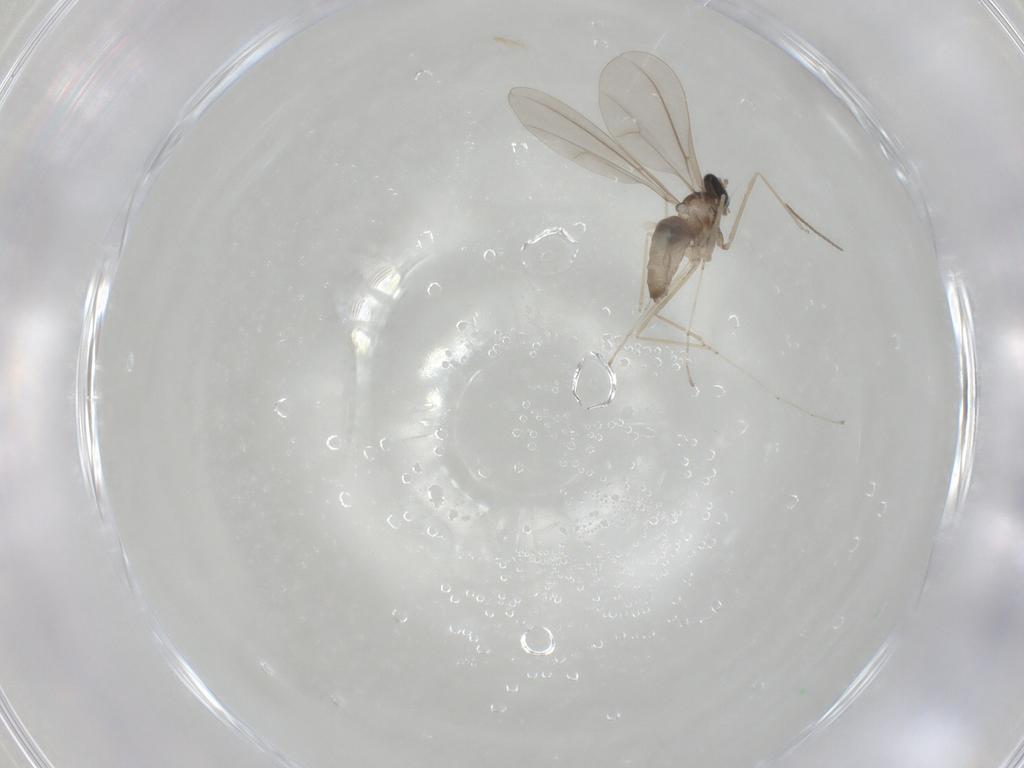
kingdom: Animalia
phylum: Arthropoda
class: Insecta
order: Diptera
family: Cecidomyiidae
